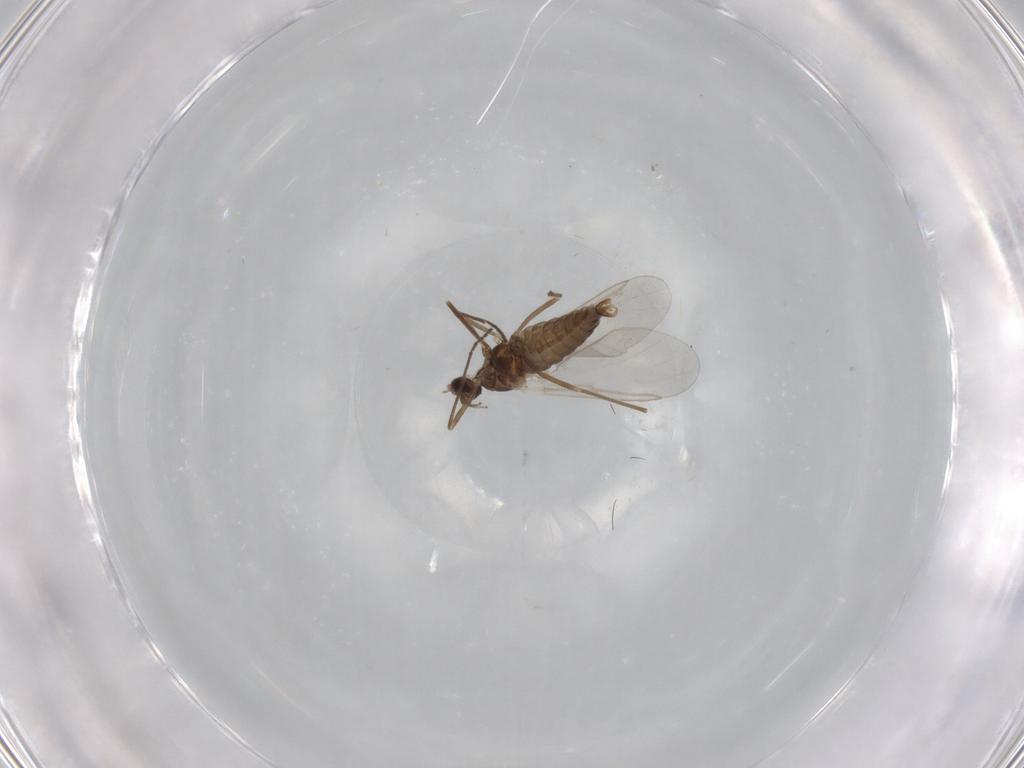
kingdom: Animalia
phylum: Arthropoda
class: Insecta
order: Diptera
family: Cecidomyiidae
